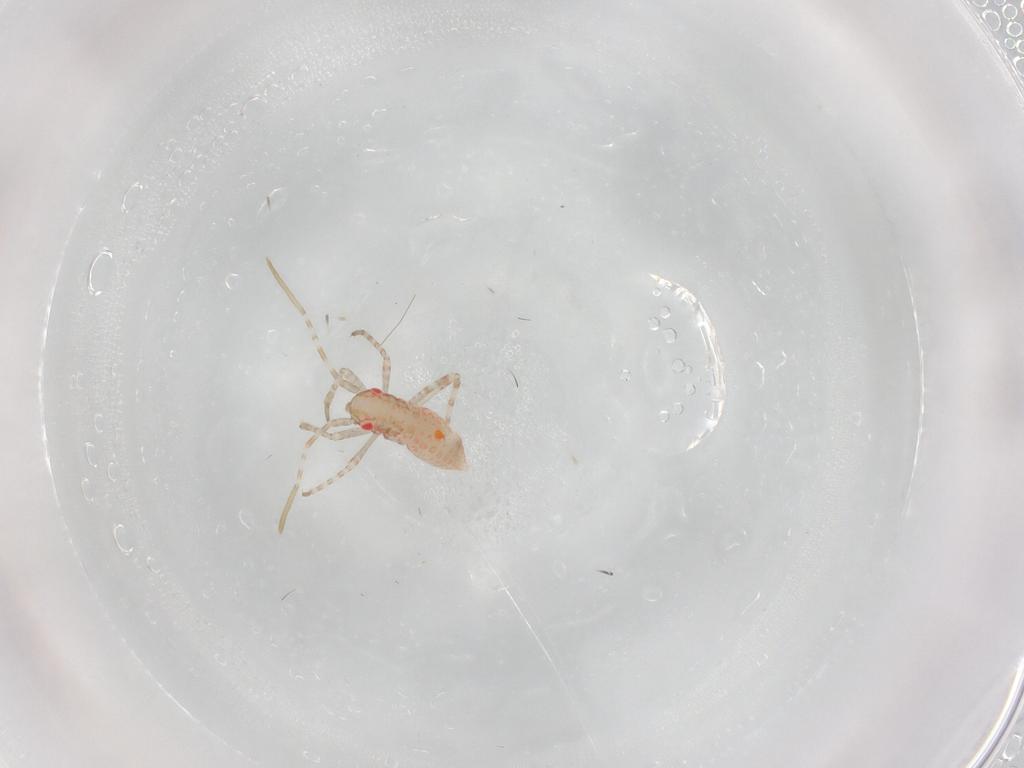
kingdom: Animalia
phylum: Arthropoda
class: Insecta
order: Hemiptera
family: Miridae
